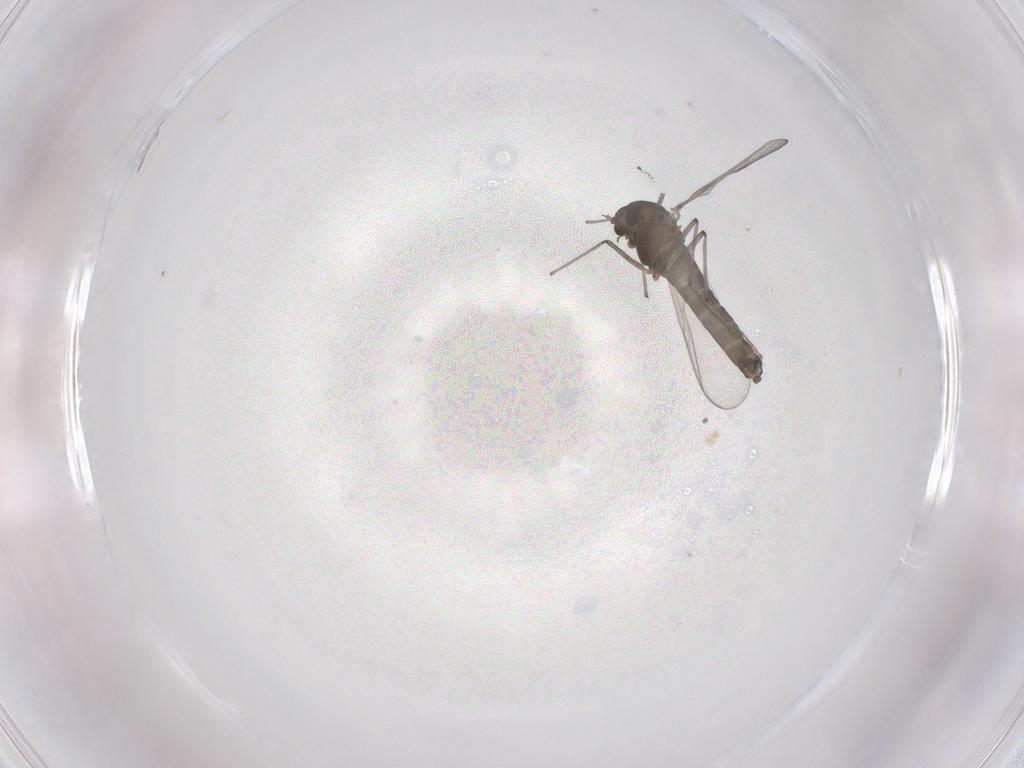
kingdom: Animalia
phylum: Arthropoda
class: Insecta
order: Diptera
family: Chironomidae
